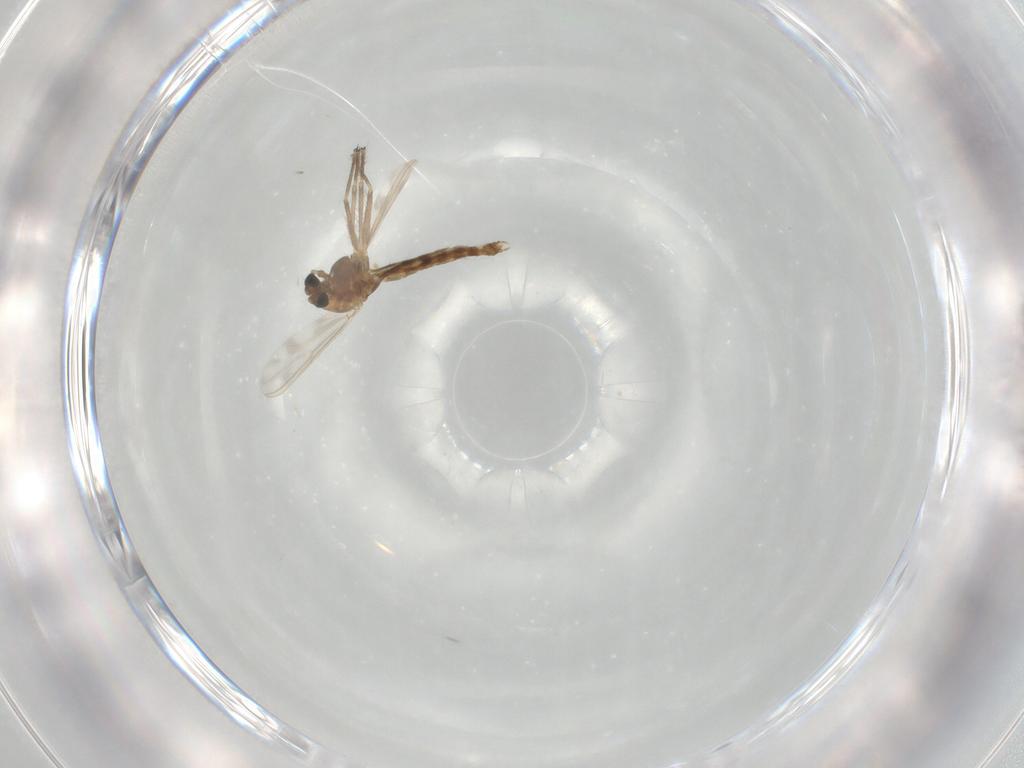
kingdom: Animalia
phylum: Arthropoda
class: Insecta
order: Diptera
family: Chironomidae
